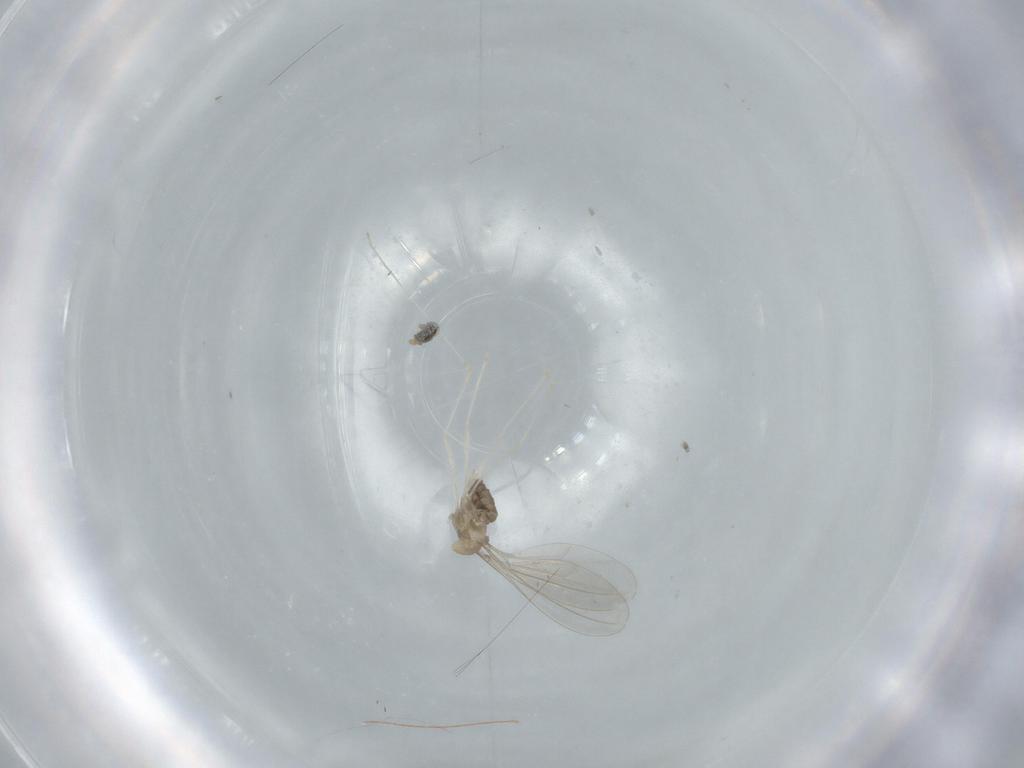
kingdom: Animalia
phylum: Arthropoda
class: Insecta
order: Diptera
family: Cecidomyiidae
